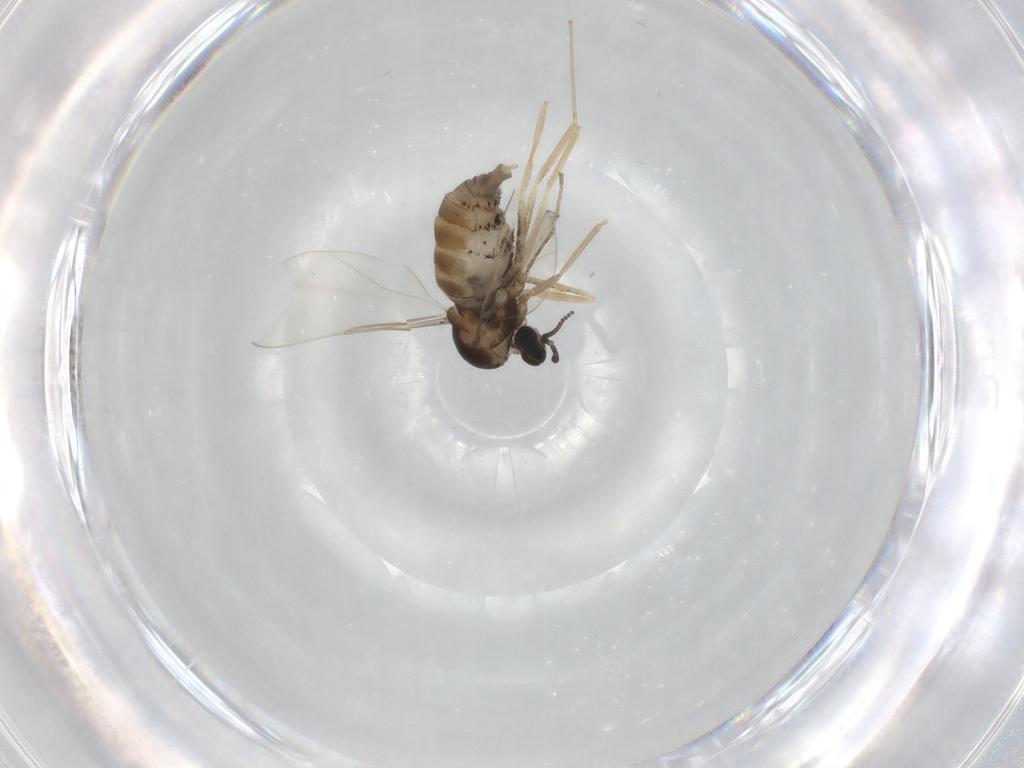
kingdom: Animalia
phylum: Arthropoda
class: Insecta
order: Diptera
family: Cecidomyiidae
